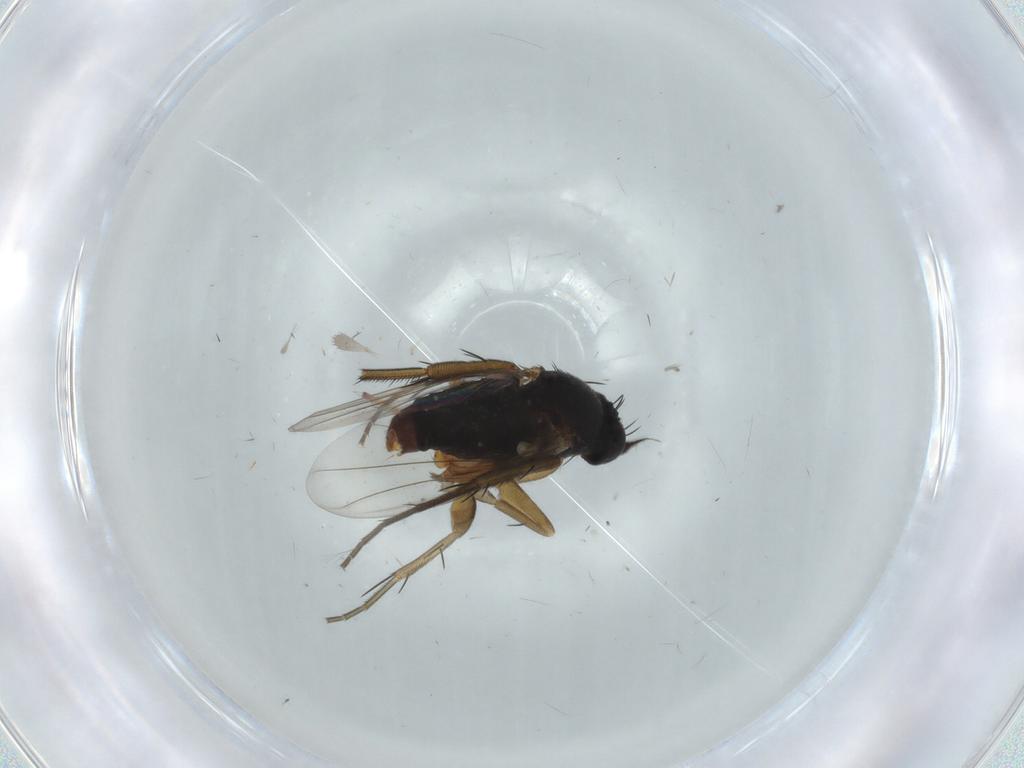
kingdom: Animalia
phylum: Arthropoda
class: Insecta
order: Diptera
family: Phoridae
